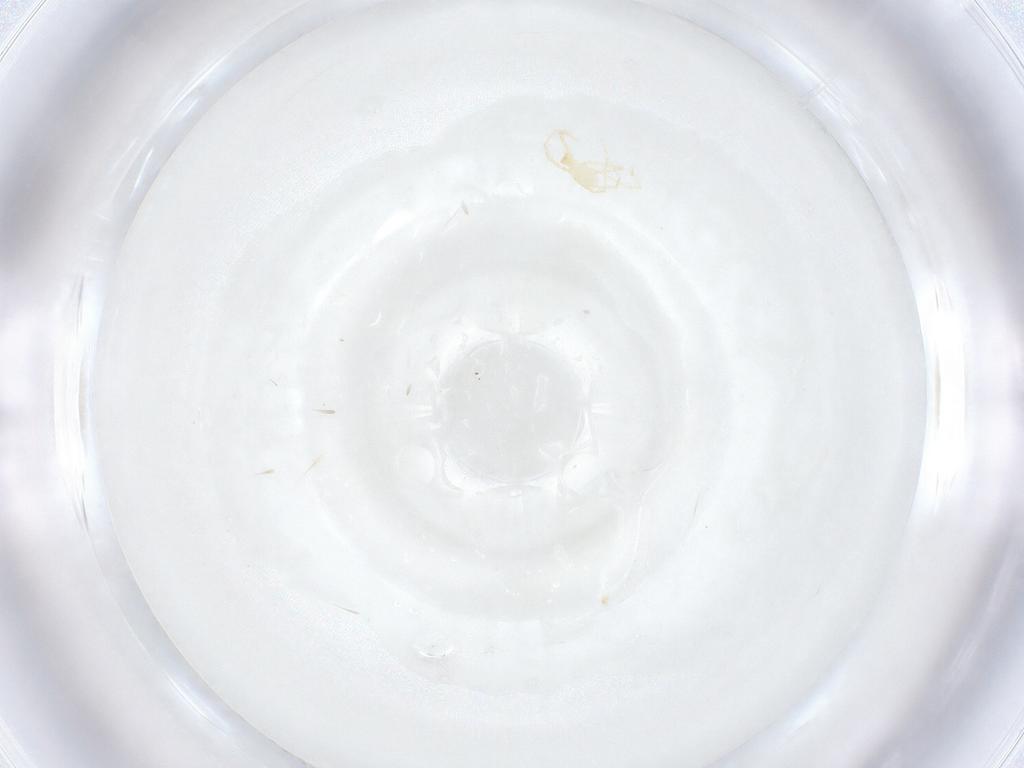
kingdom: Animalia
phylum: Arthropoda
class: Arachnida
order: Trombidiformes
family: Erythraeidae
